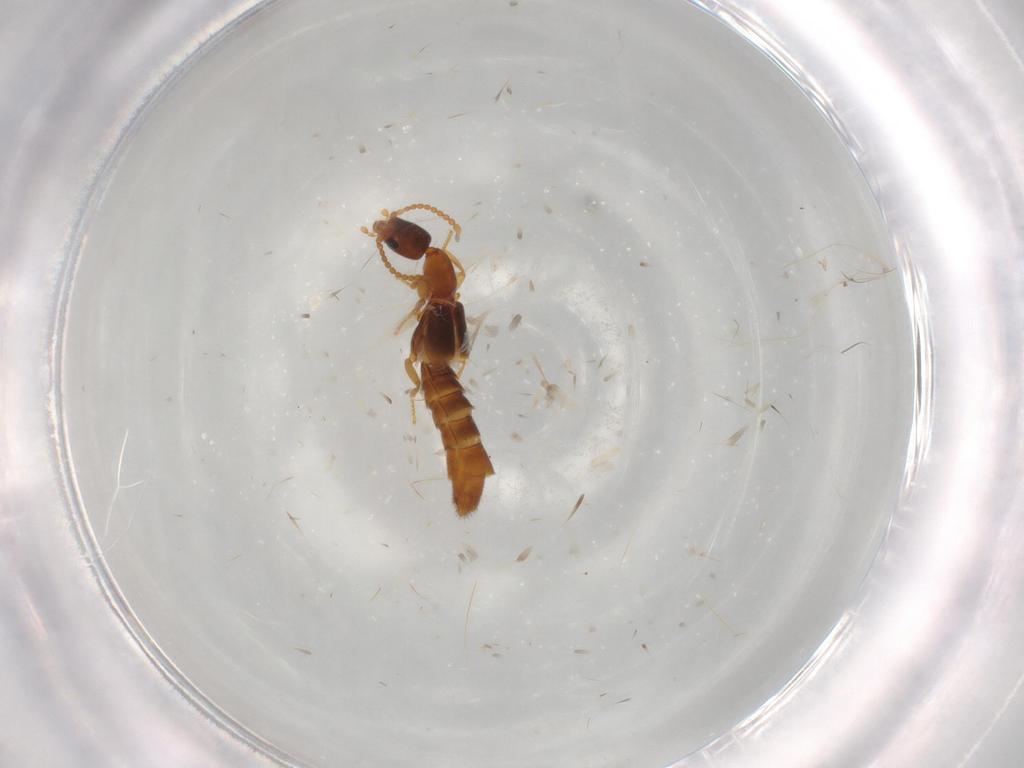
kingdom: Animalia
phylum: Arthropoda
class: Insecta
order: Coleoptera
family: Staphylinidae
